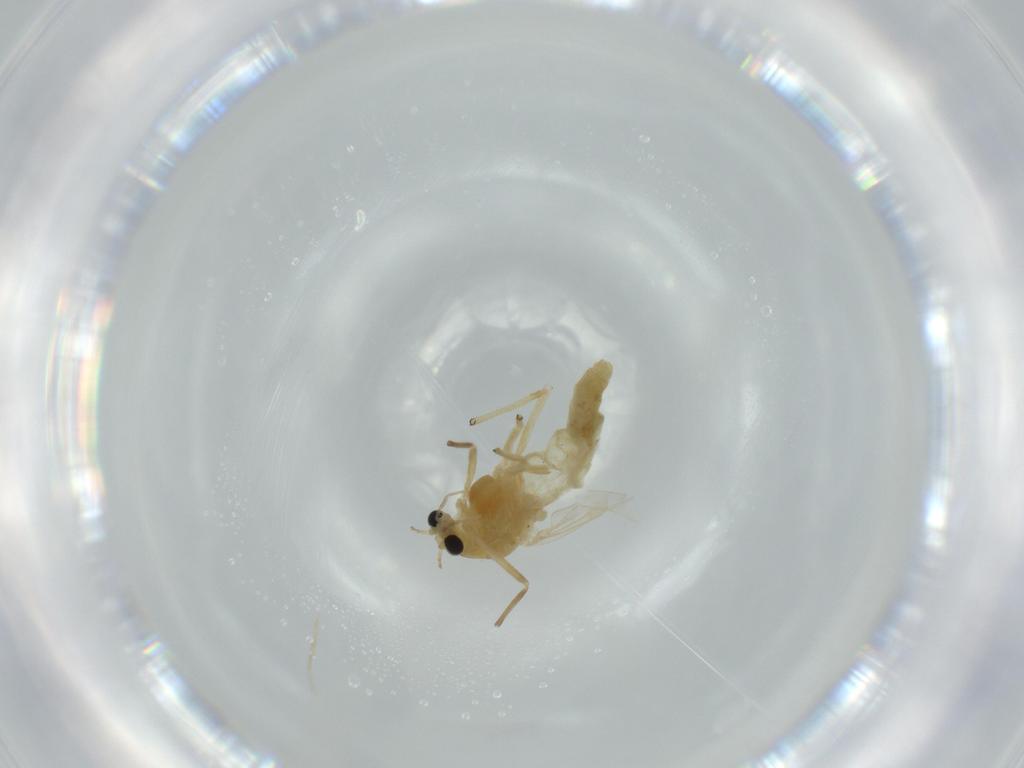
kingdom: Animalia
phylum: Arthropoda
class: Insecta
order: Diptera
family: Chironomidae
